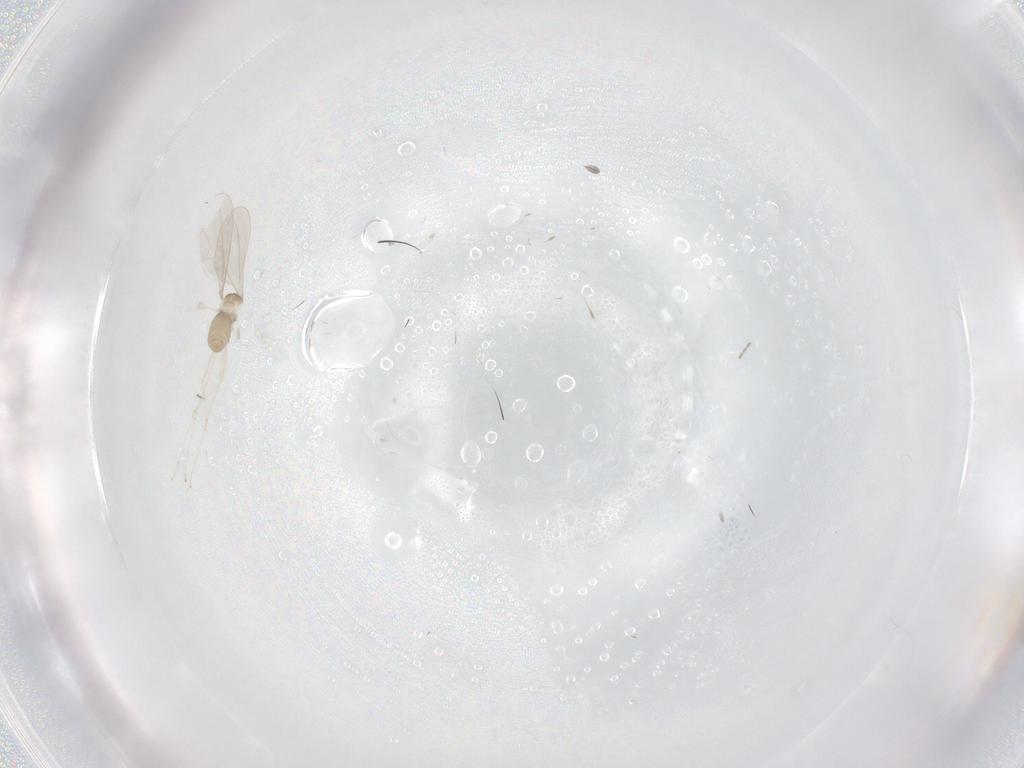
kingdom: Animalia
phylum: Arthropoda
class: Insecta
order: Diptera
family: Cecidomyiidae
